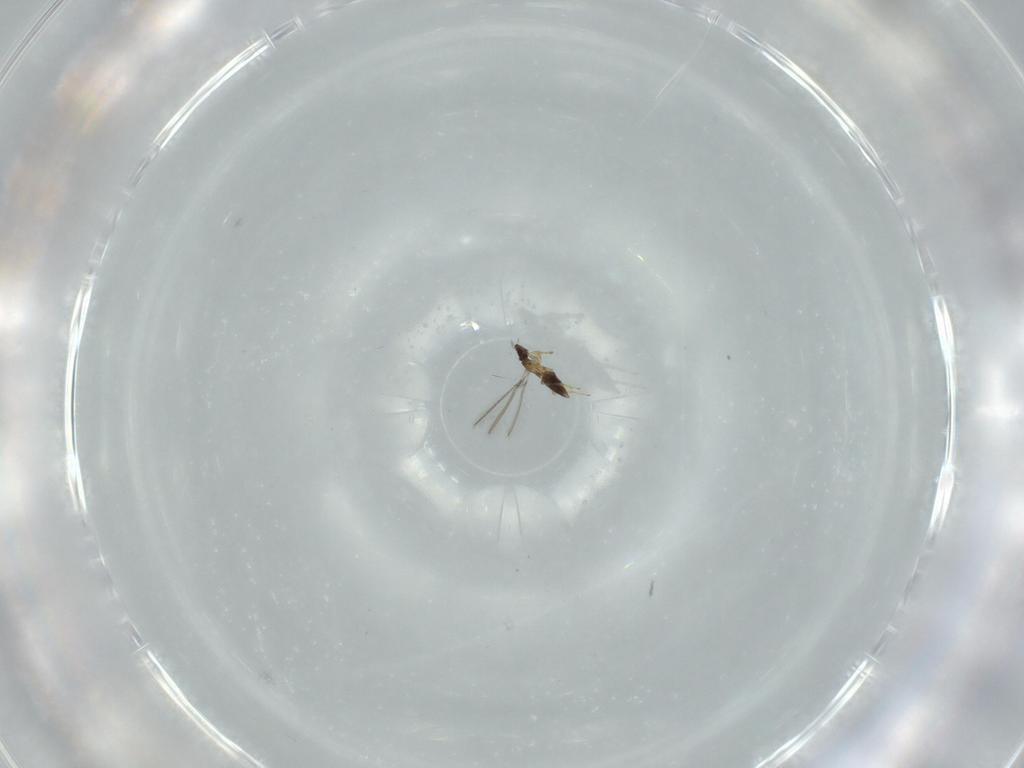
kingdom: Animalia
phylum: Arthropoda
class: Insecta
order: Hymenoptera
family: Mymaridae
